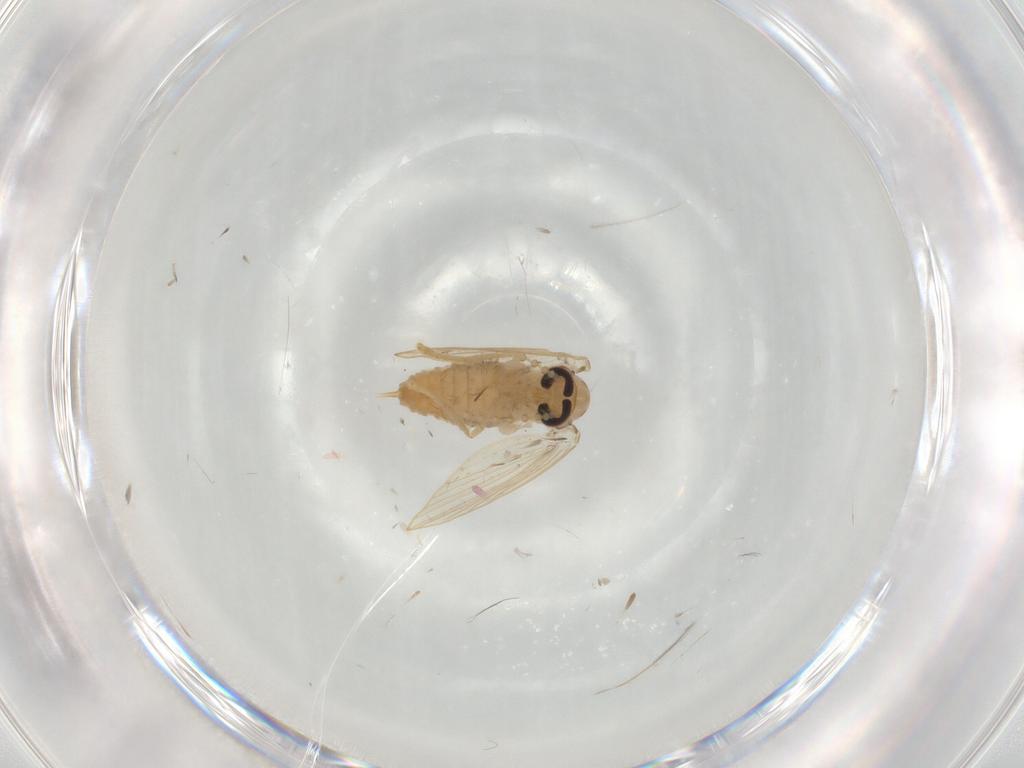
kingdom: Animalia
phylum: Arthropoda
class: Insecta
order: Diptera
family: Psychodidae
